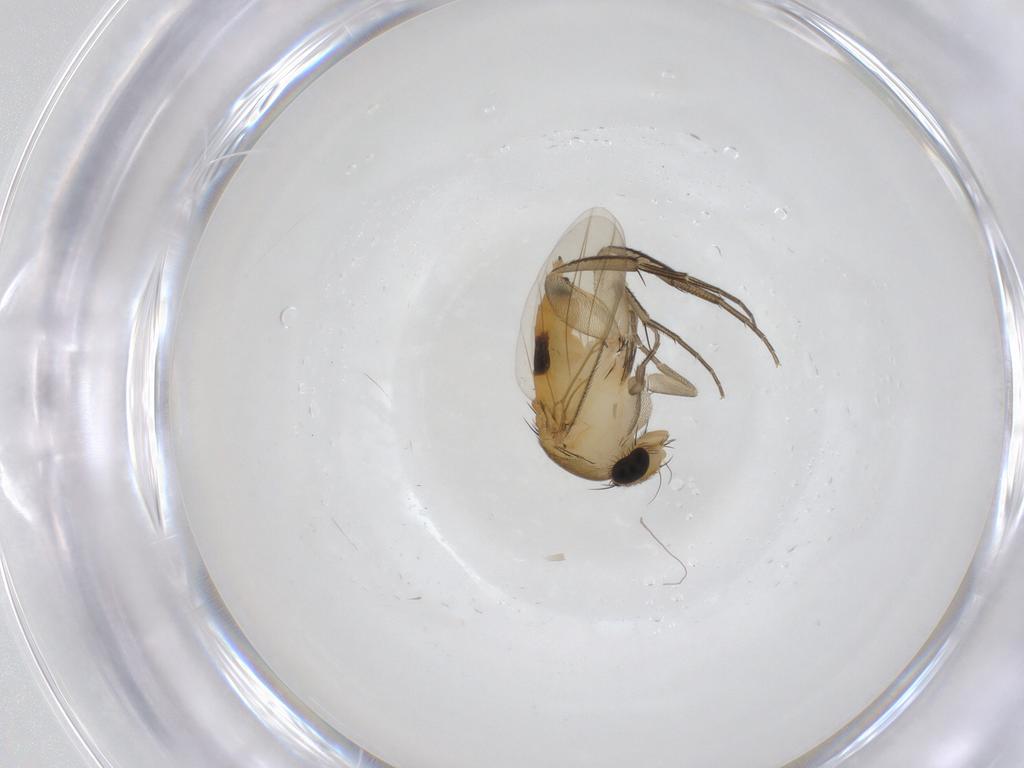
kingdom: Animalia
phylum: Arthropoda
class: Insecta
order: Diptera
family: Phoridae
